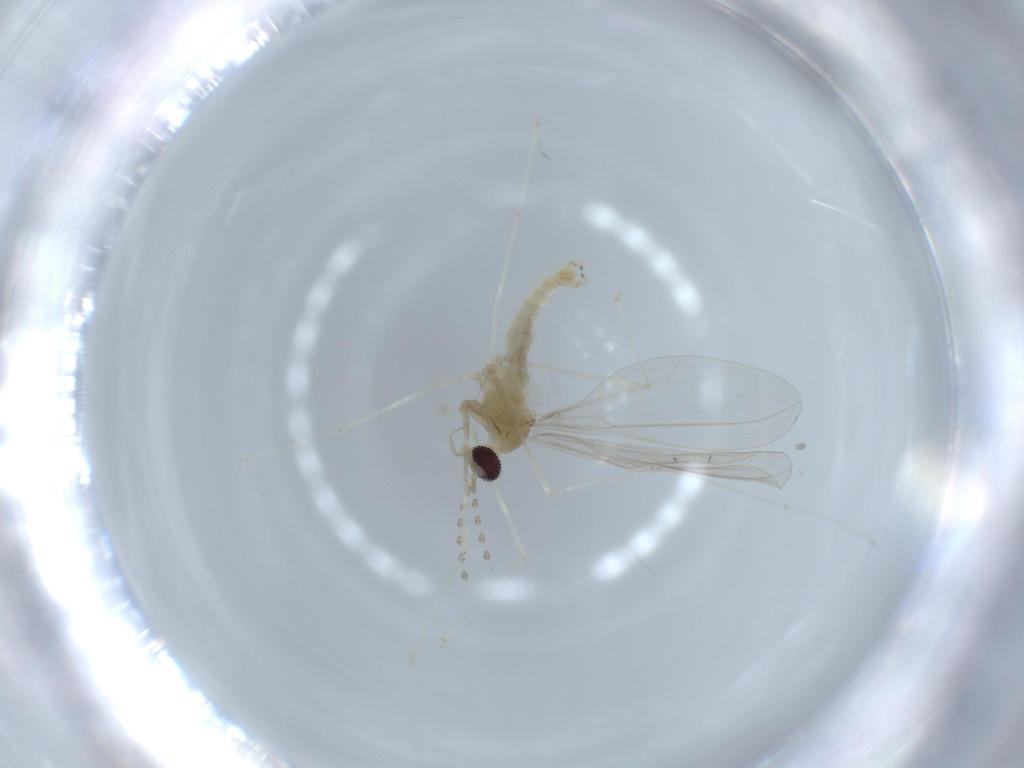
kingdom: Animalia
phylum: Arthropoda
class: Insecta
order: Diptera
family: Cecidomyiidae
